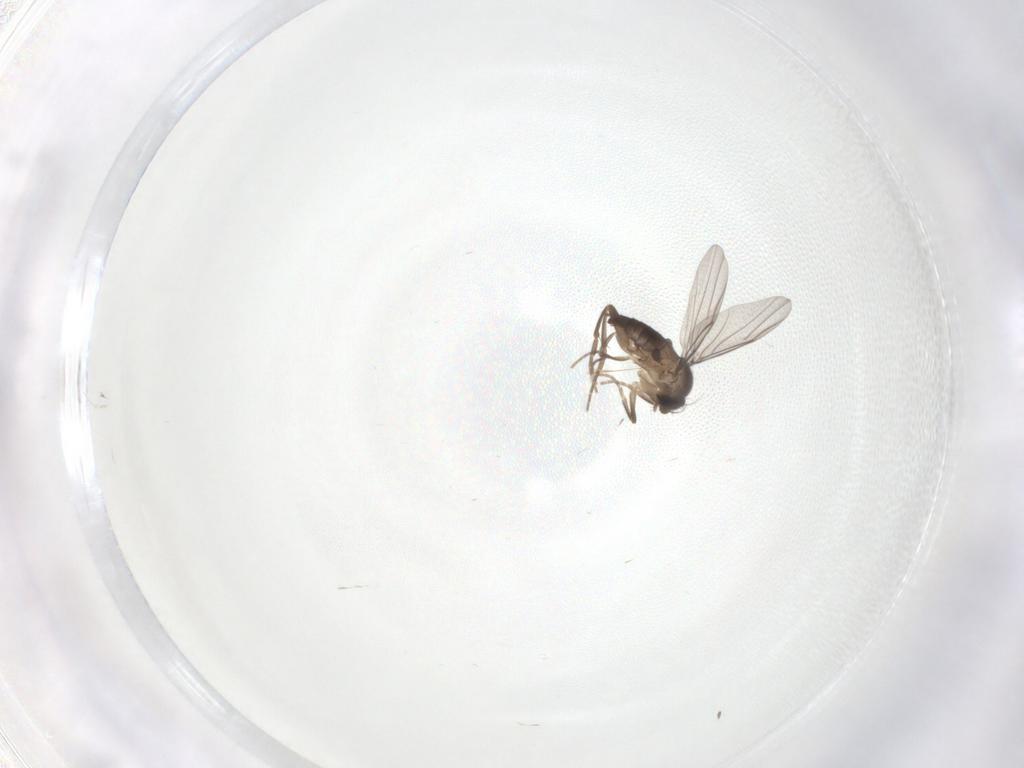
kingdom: Animalia
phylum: Arthropoda
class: Insecta
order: Diptera
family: Phoridae
